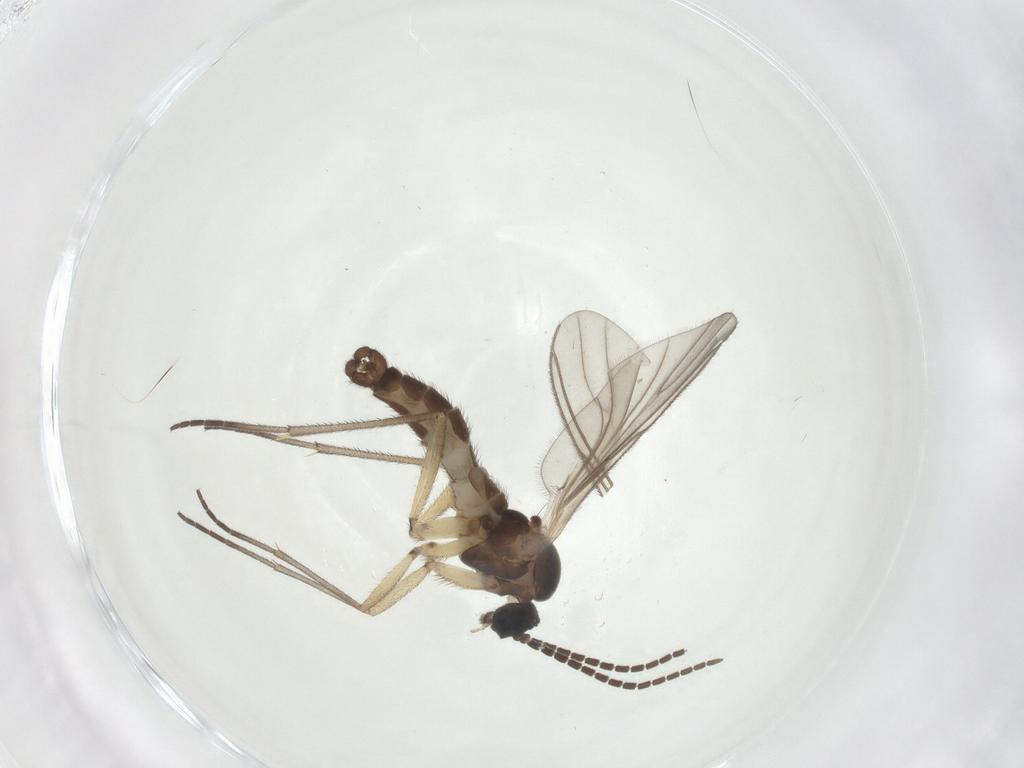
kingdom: Animalia
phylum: Arthropoda
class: Insecta
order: Diptera
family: Sciaridae
